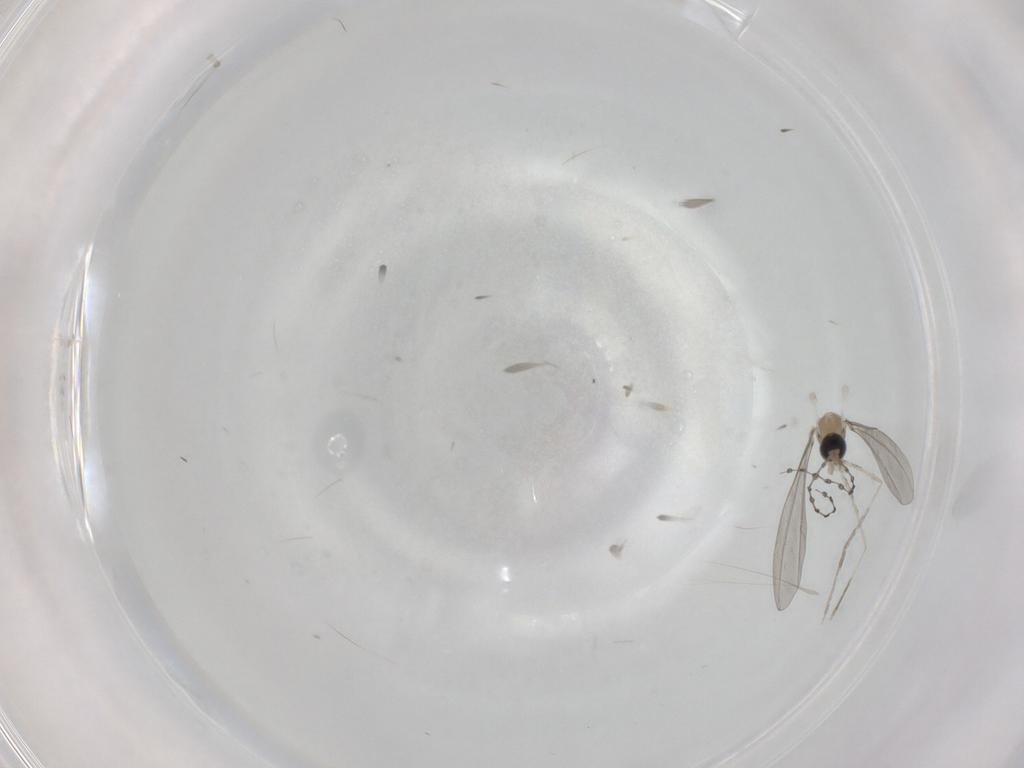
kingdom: Animalia
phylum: Arthropoda
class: Insecta
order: Diptera
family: Cecidomyiidae
